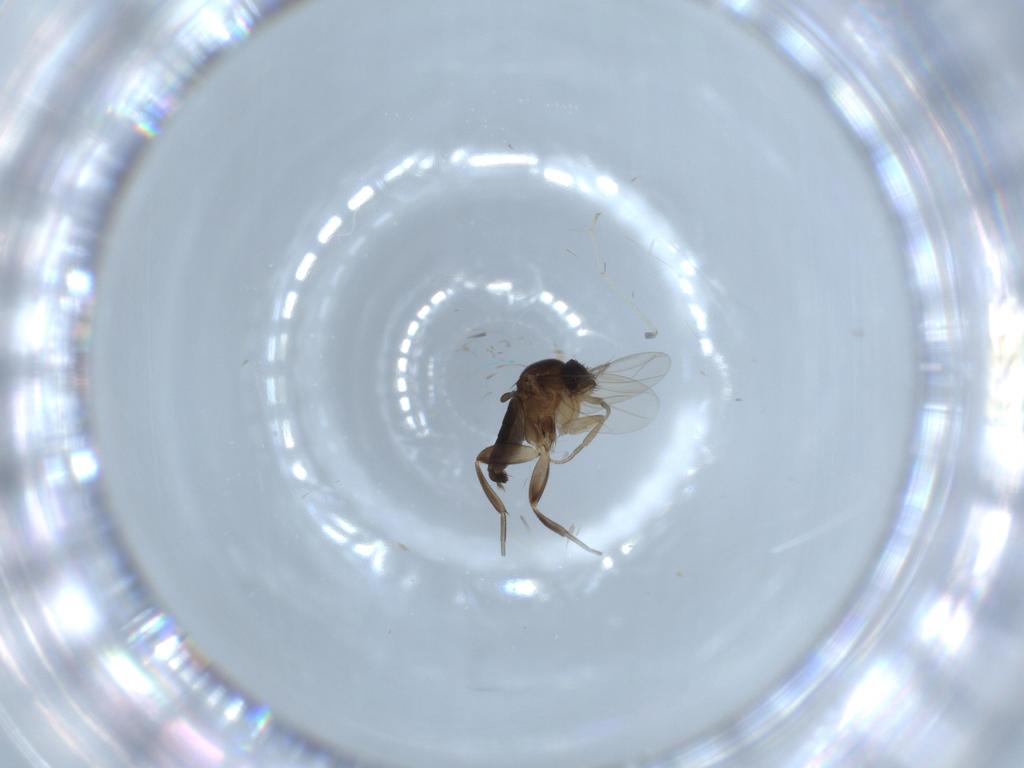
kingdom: Animalia
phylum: Arthropoda
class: Insecta
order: Diptera
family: Phoridae
